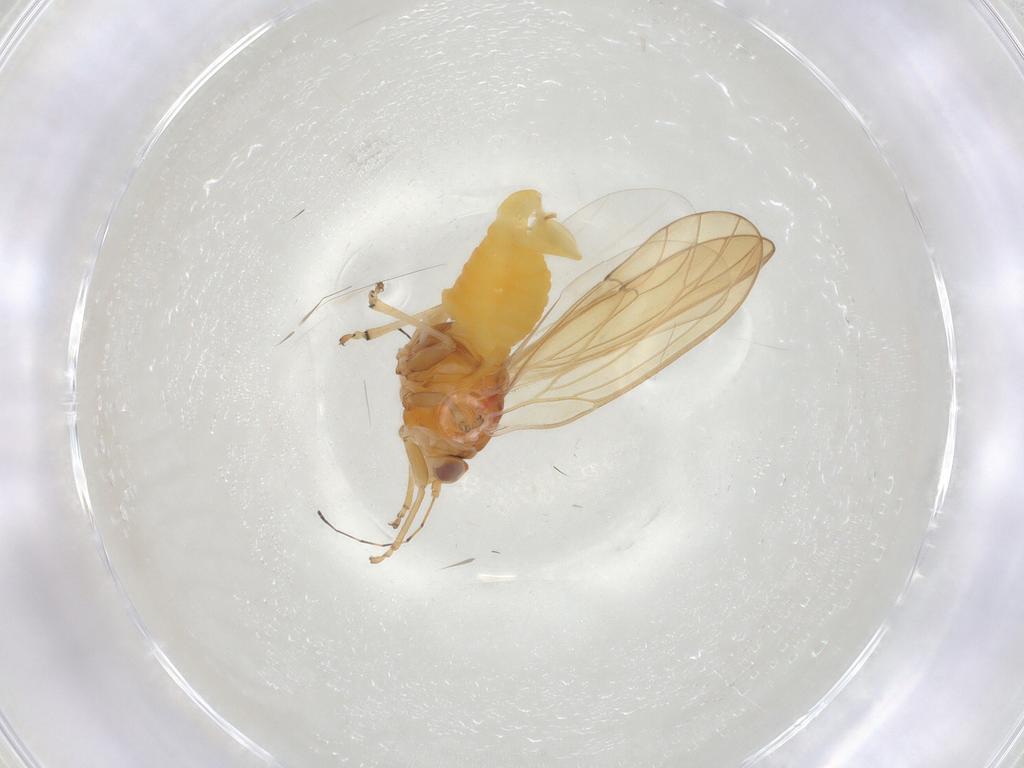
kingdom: Animalia
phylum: Arthropoda
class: Insecta
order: Hemiptera
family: Psylloidea_incertae_sedis
